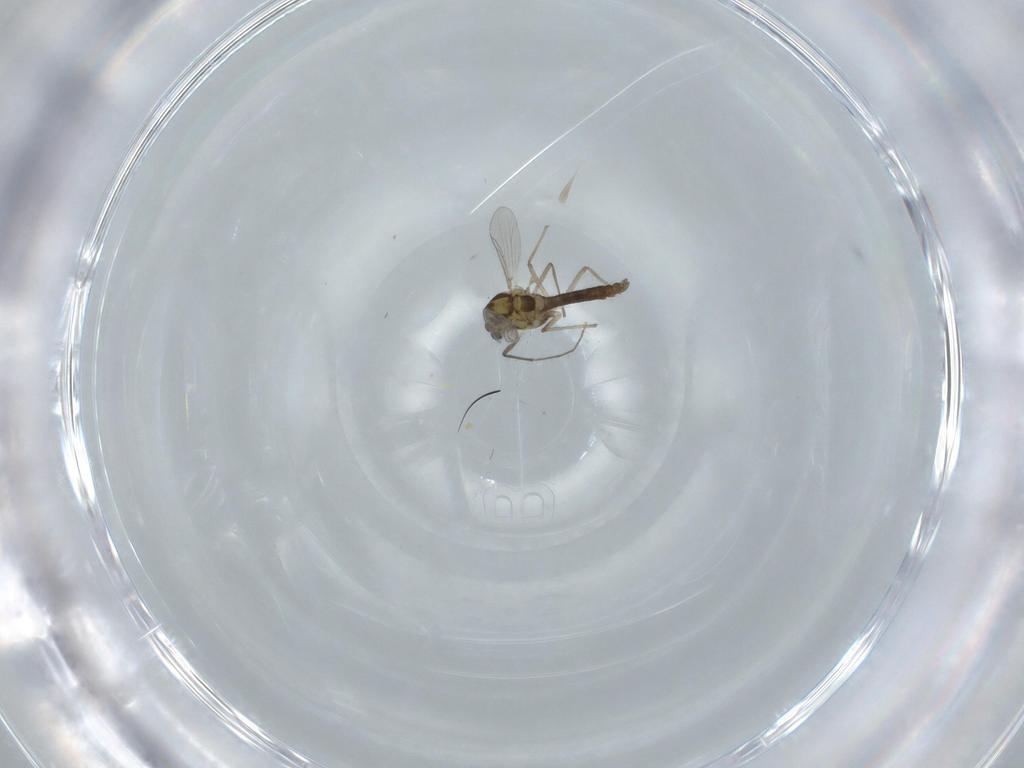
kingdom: Animalia
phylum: Arthropoda
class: Insecta
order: Diptera
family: Chironomidae
